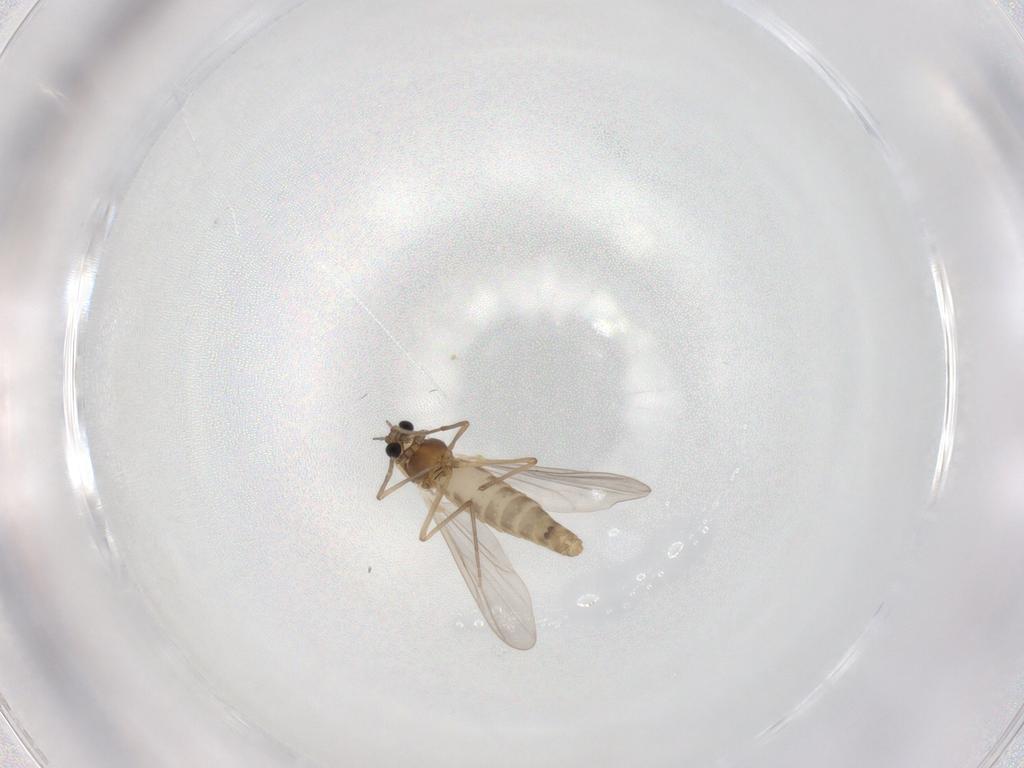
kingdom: Animalia
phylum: Arthropoda
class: Insecta
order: Diptera
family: Chironomidae
